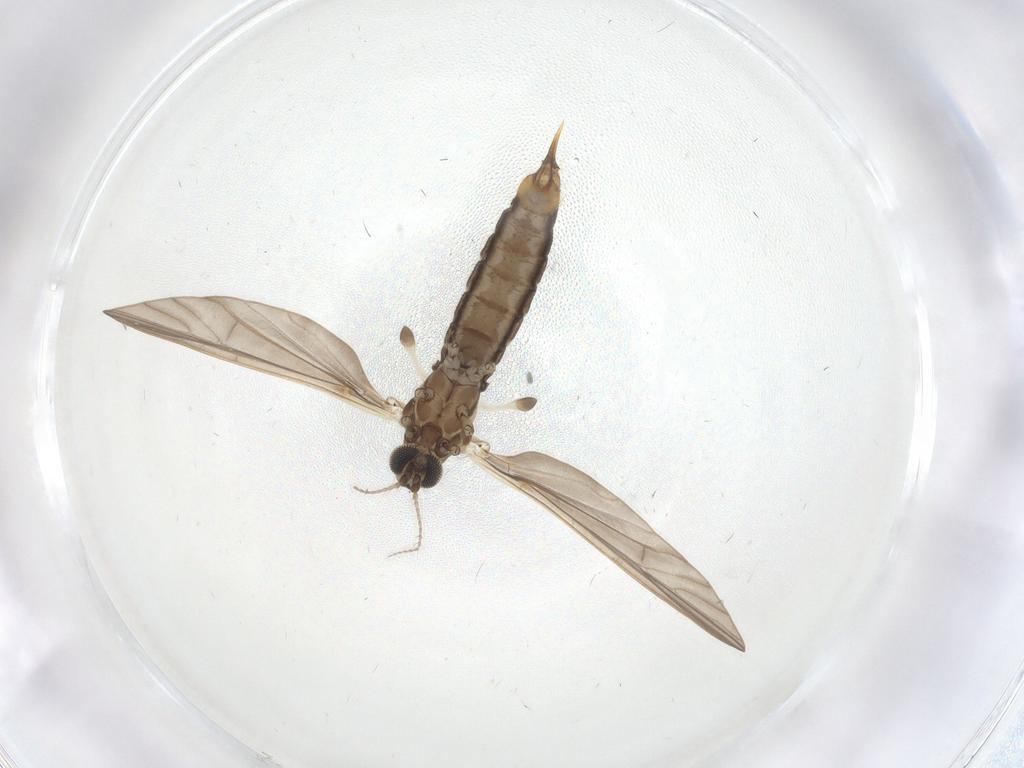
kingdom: Animalia
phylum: Arthropoda
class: Insecta
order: Diptera
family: Limoniidae
